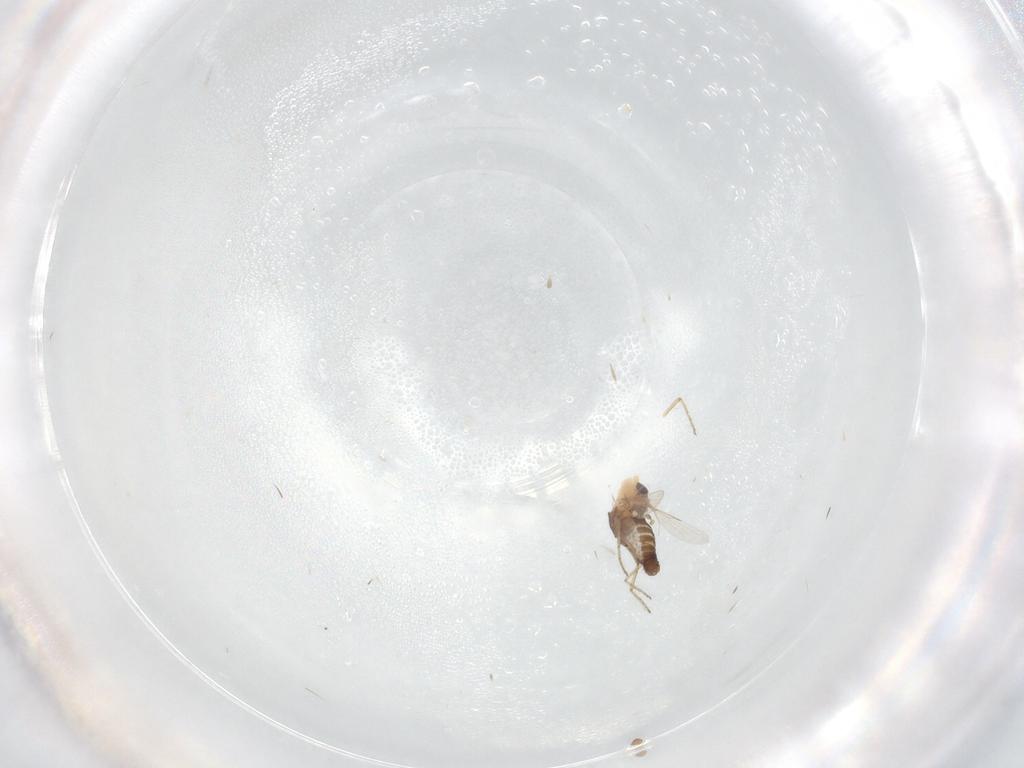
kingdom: Animalia
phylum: Arthropoda
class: Insecta
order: Diptera
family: Ceratopogonidae
